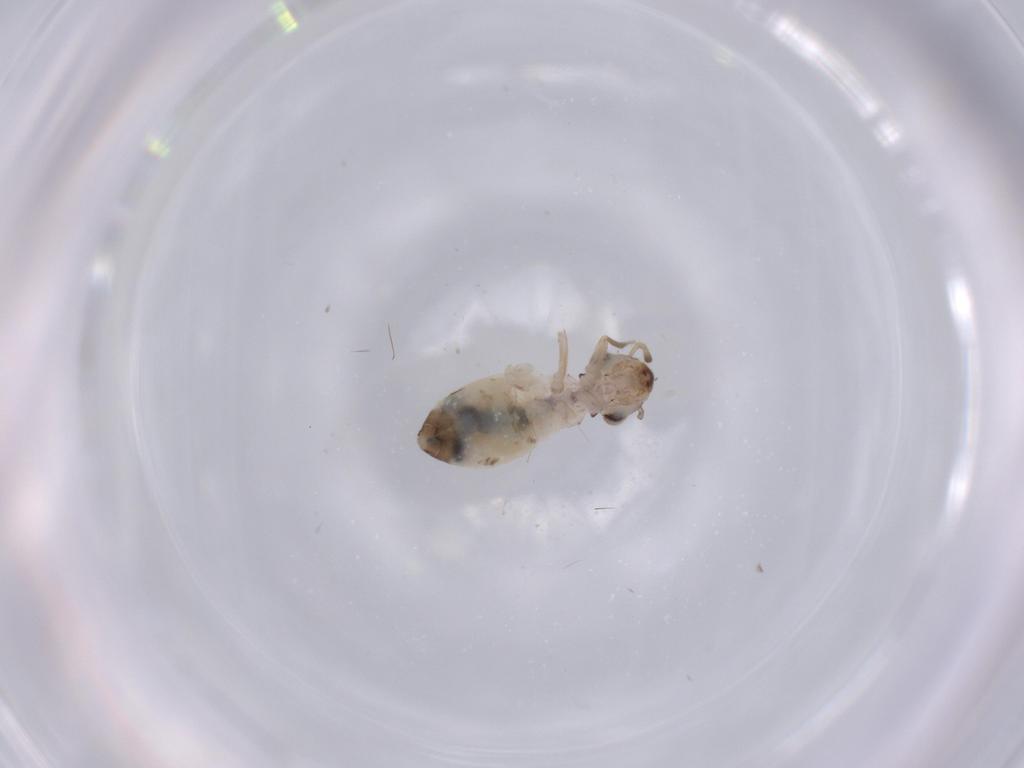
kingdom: Animalia
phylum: Arthropoda
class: Insecta
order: Psocodea
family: Lepidopsocidae
